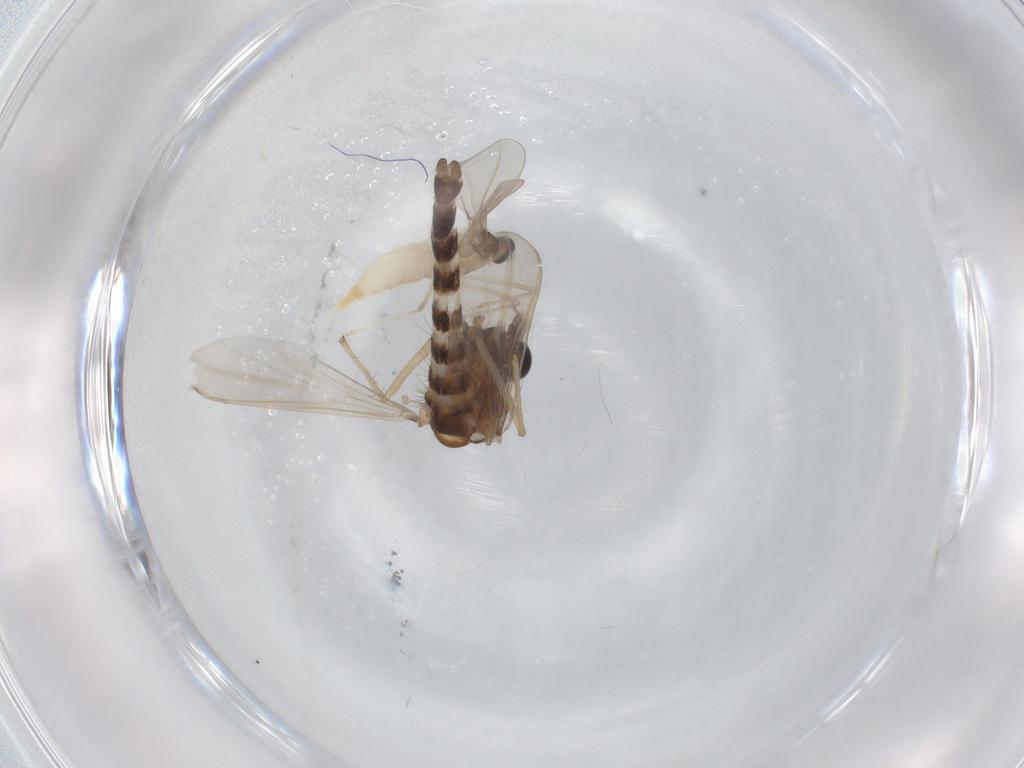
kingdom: Animalia
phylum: Arthropoda
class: Insecta
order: Diptera
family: Chironomidae
